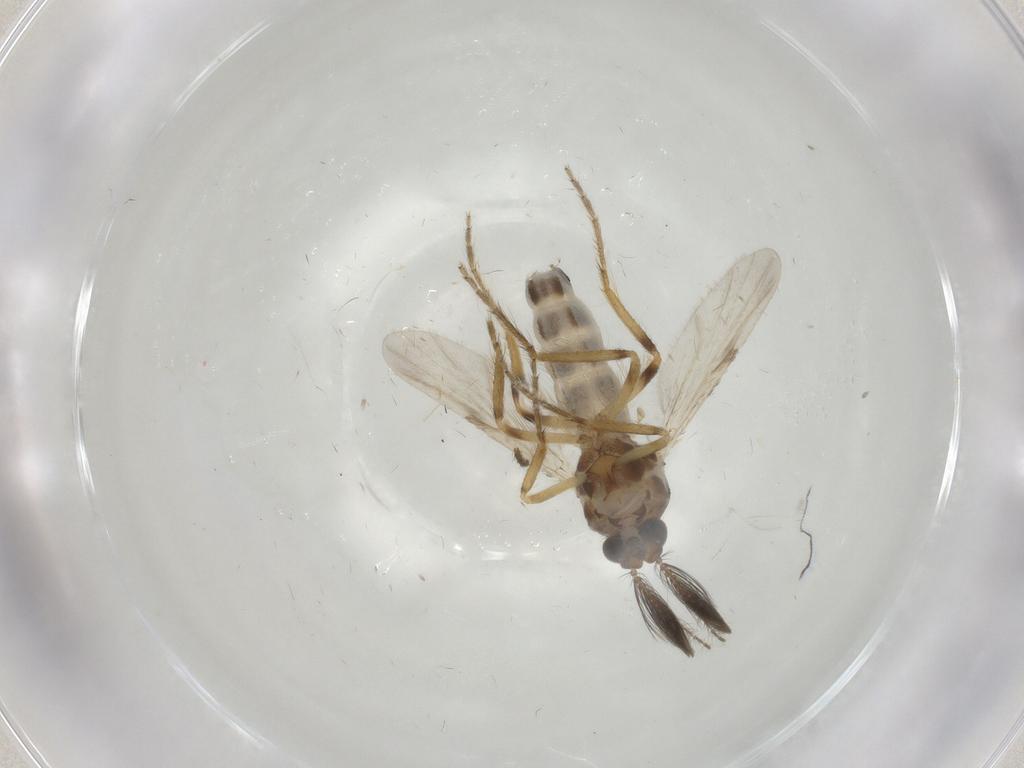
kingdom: Animalia
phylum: Arthropoda
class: Insecta
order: Diptera
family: Ceratopogonidae
